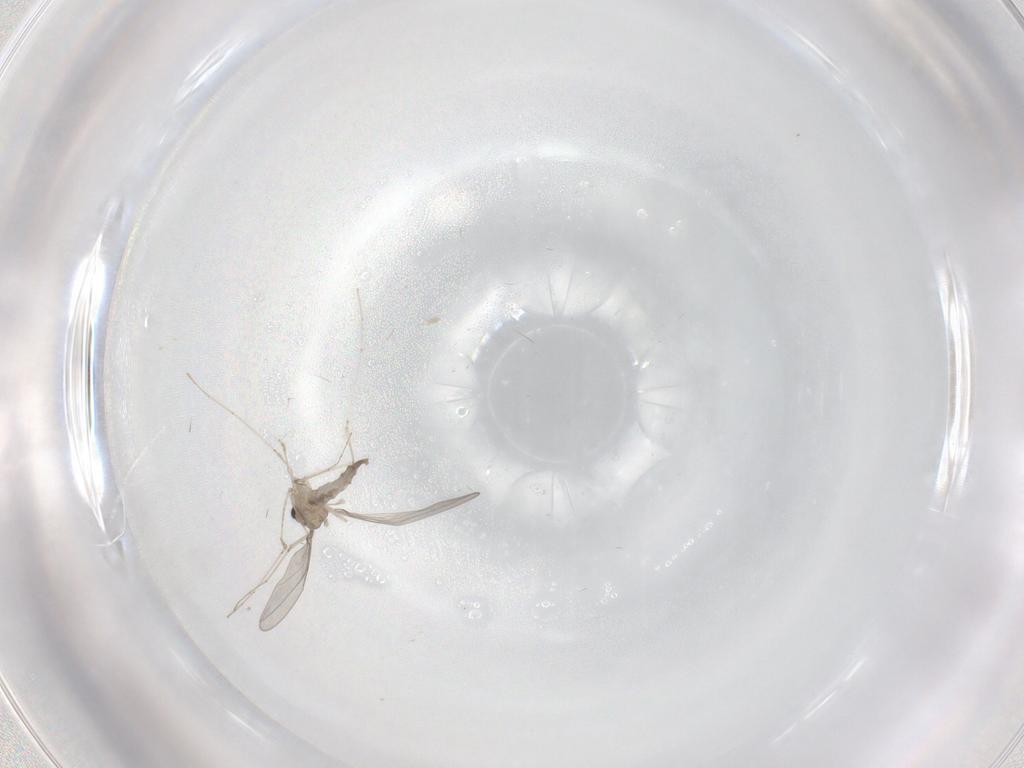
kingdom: Animalia
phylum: Arthropoda
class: Insecta
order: Diptera
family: Cecidomyiidae
